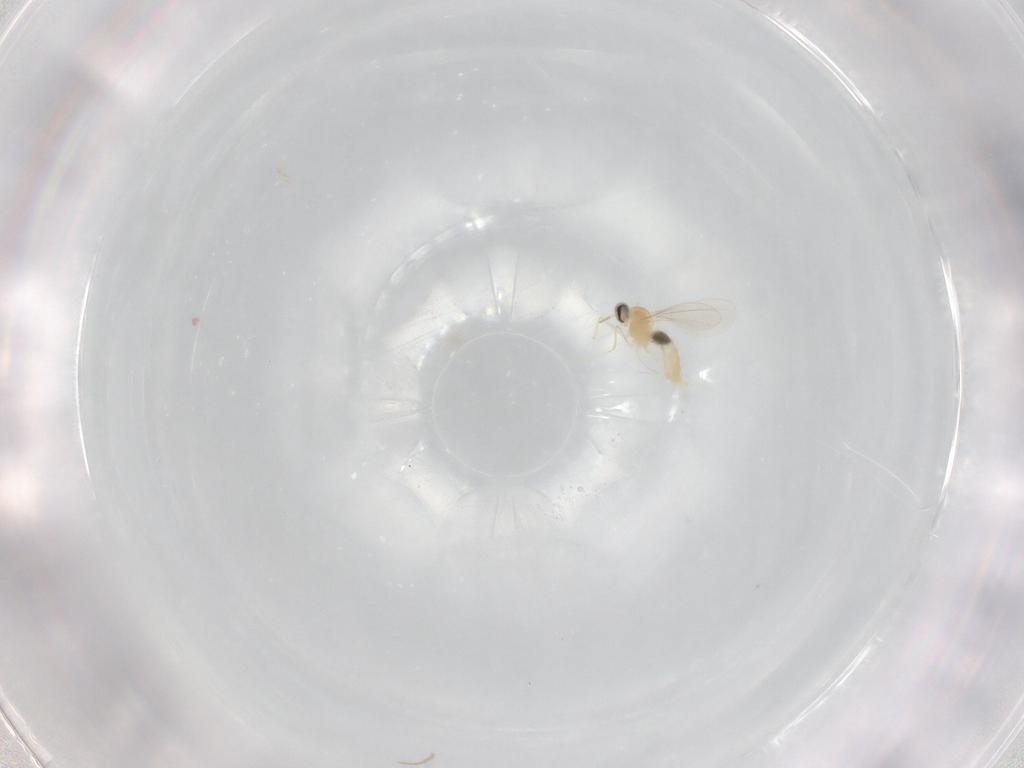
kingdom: Animalia
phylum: Arthropoda
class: Insecta
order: Diptera
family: Cecidomyiidae
